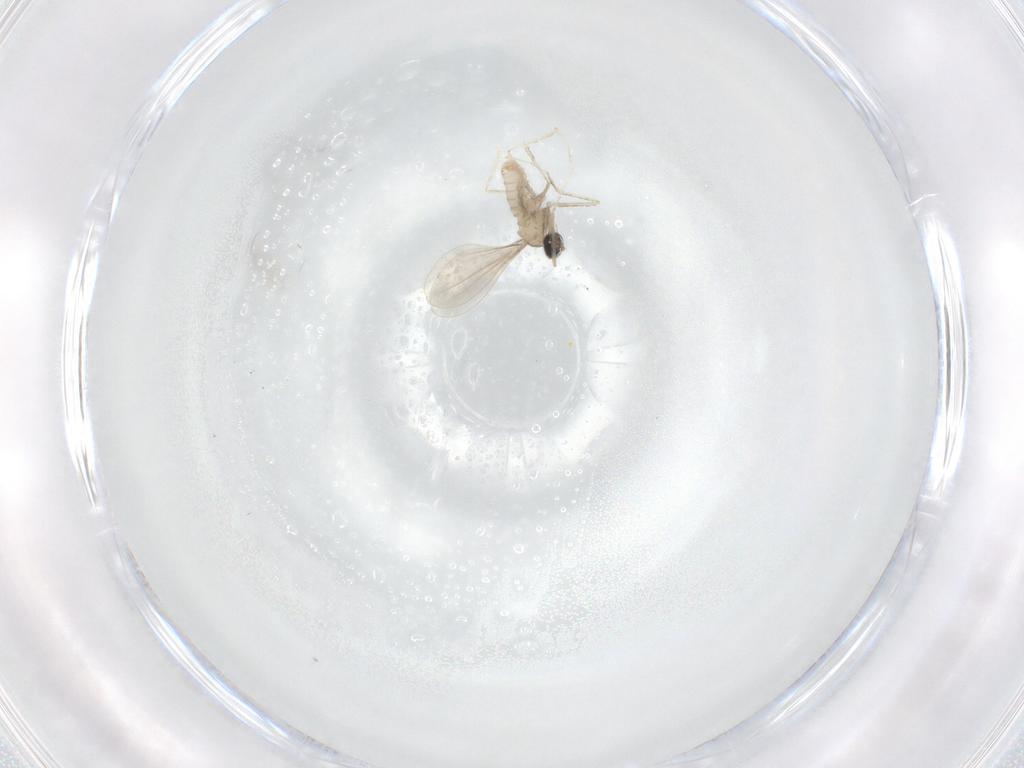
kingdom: Animalia
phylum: Arthropoda
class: Insecta
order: Diptera
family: Cecidomyiidae
